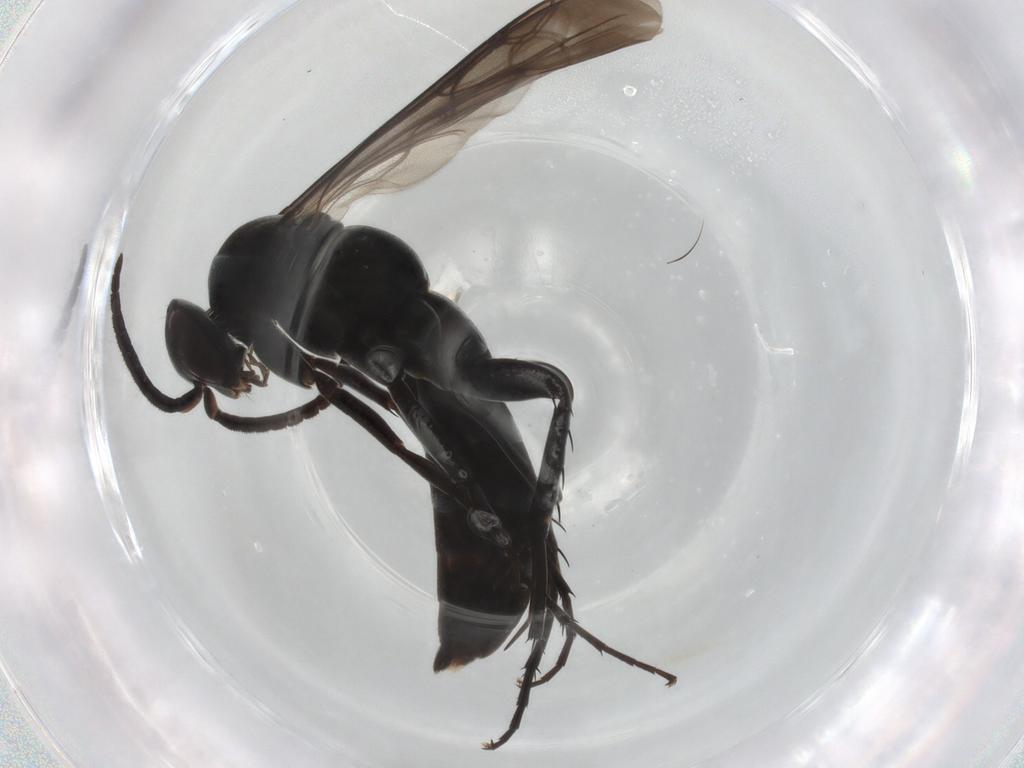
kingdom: Animalia
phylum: Arthropoda
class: Insecta
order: Hymenoptera
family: Pompilidae
